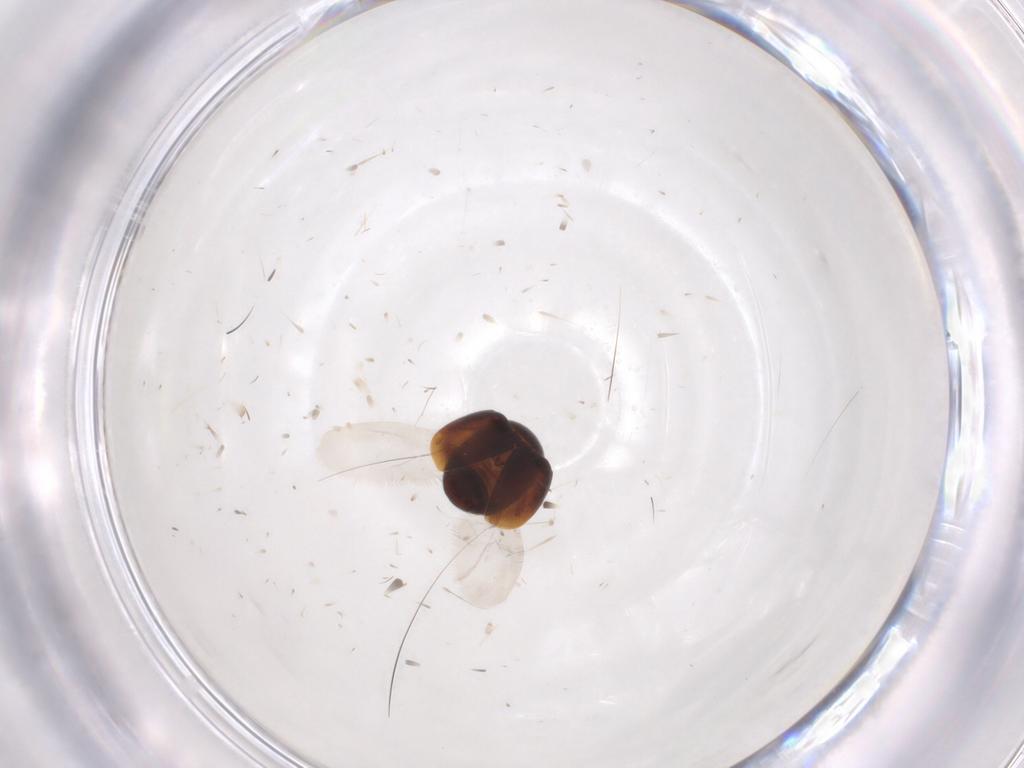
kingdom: Animalia
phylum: Arthropoda
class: Insecta
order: Coleoptera
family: Corylophidae
